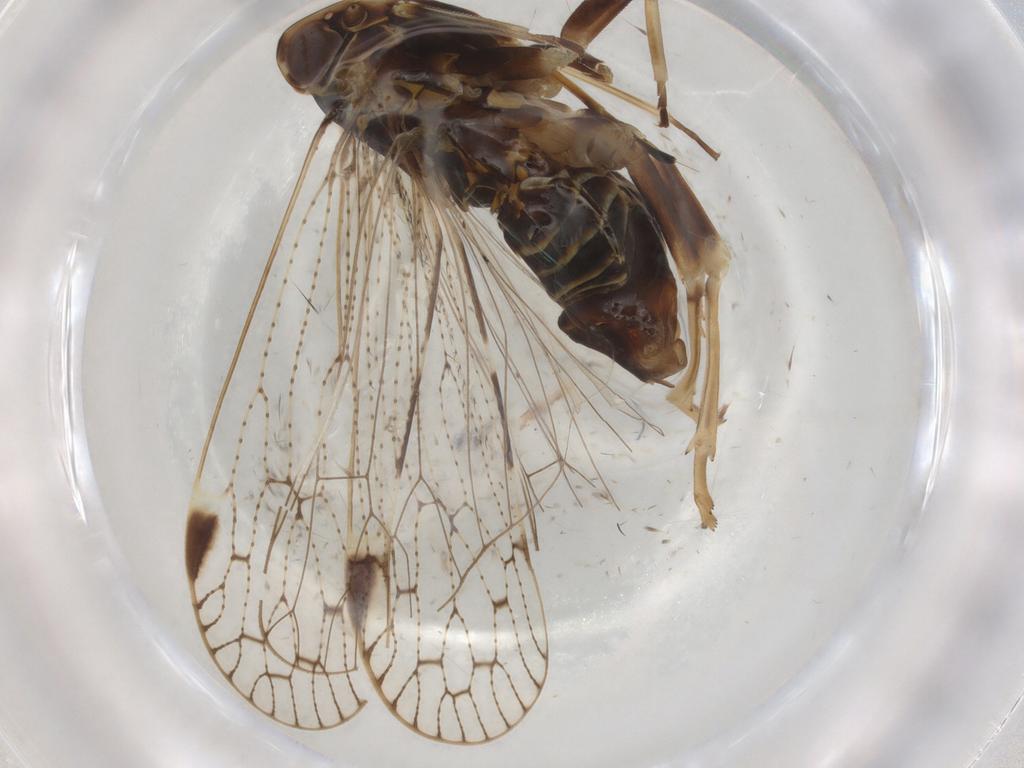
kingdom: Animalia
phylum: Arthropoda
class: Insecta
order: Hemiptera
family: Cixiidae
